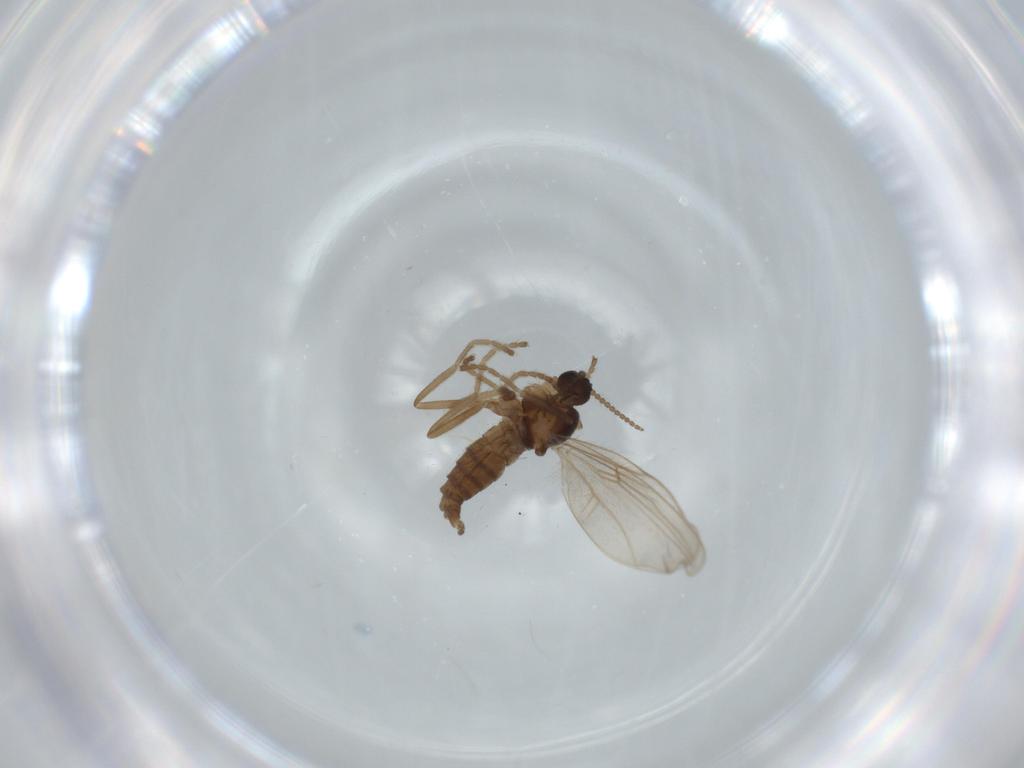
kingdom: Animalia
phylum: Arthropoda
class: Insecta
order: Diptera
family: Cecidomyiidae
